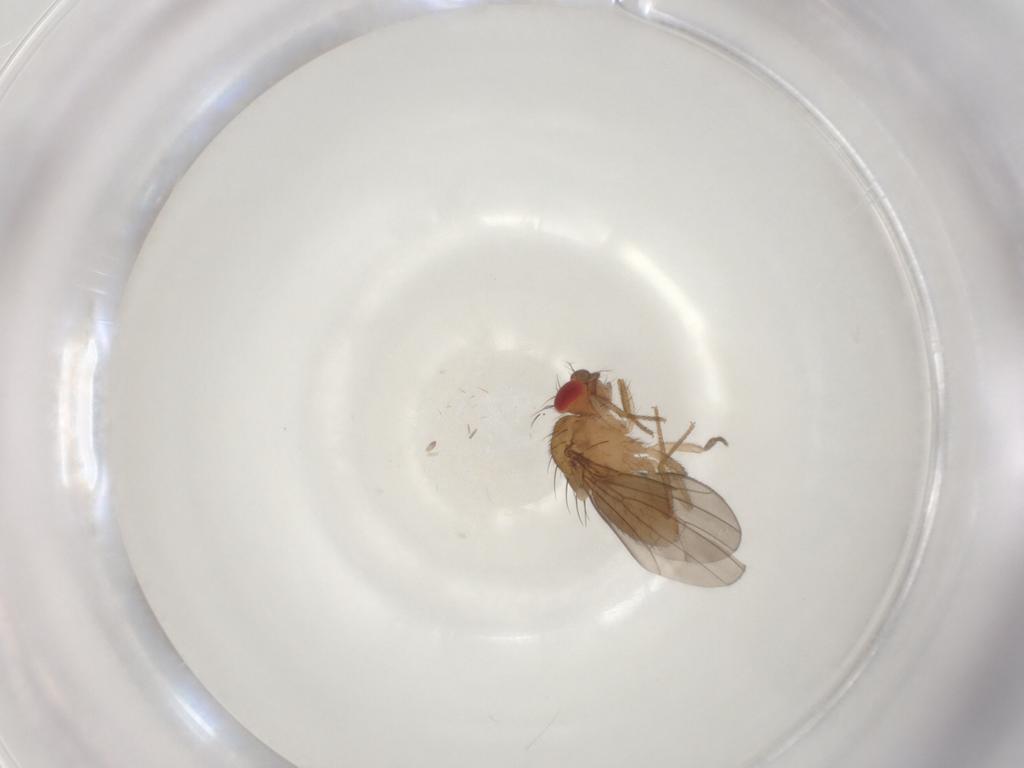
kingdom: Animalia
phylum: Arthropoda
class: Insecta
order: Diptera
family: Drosophilidae
